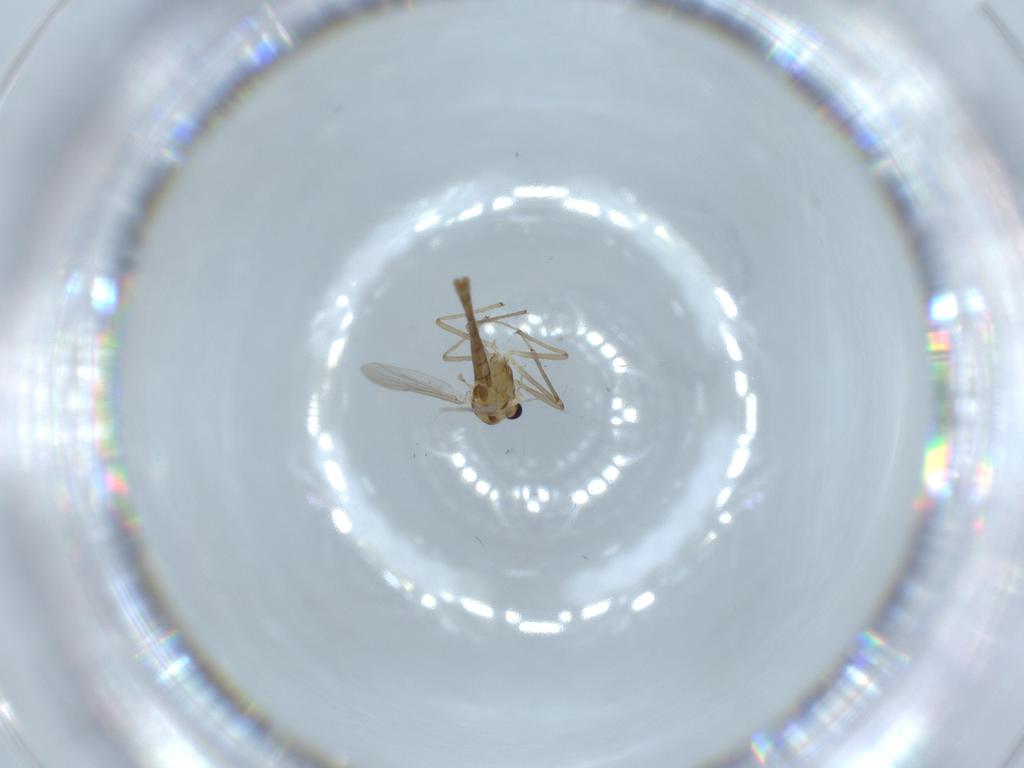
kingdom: Animalia
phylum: Arthropoda
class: Insecta
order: Diptera
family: Chironomidae
